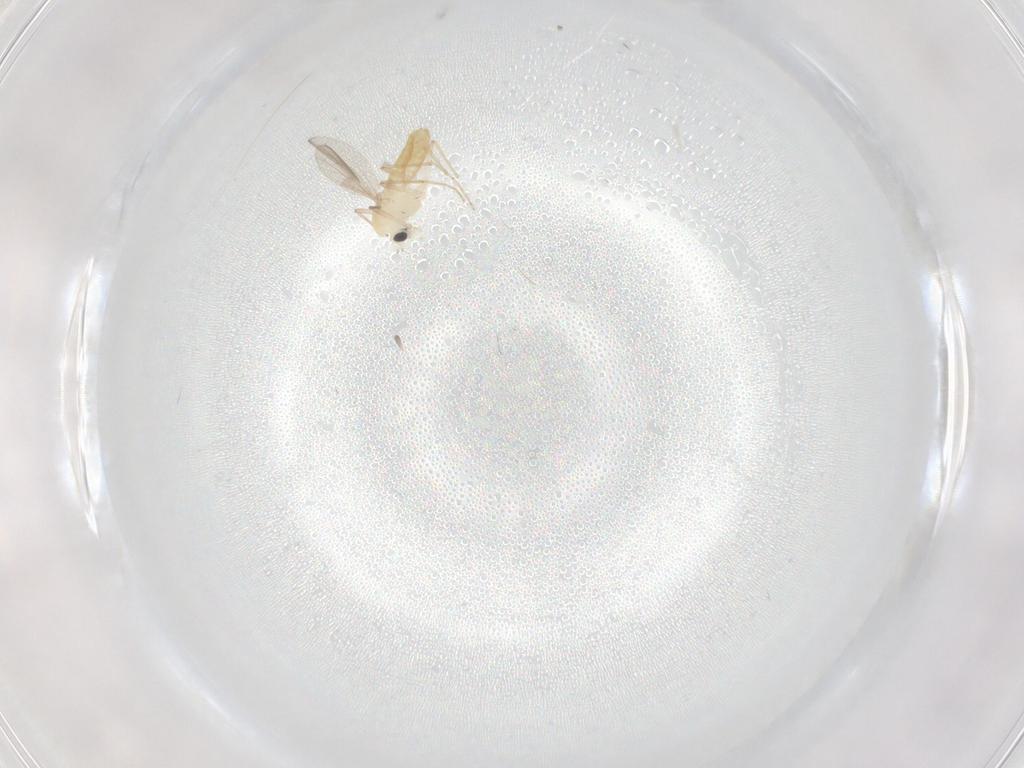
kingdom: Animalia
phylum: Arthropoda
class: Insecta
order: Diptera
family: Chironomidae
